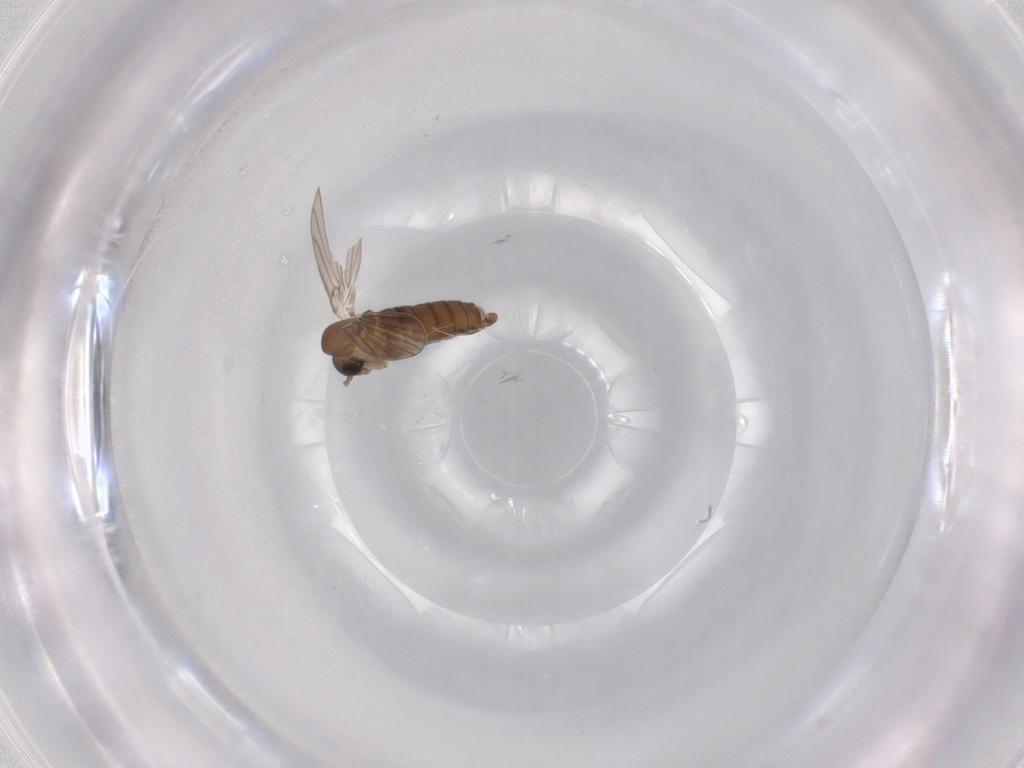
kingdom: Animalia
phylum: Arthropoda
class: Insecta
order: Diptera
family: Psychodidae
